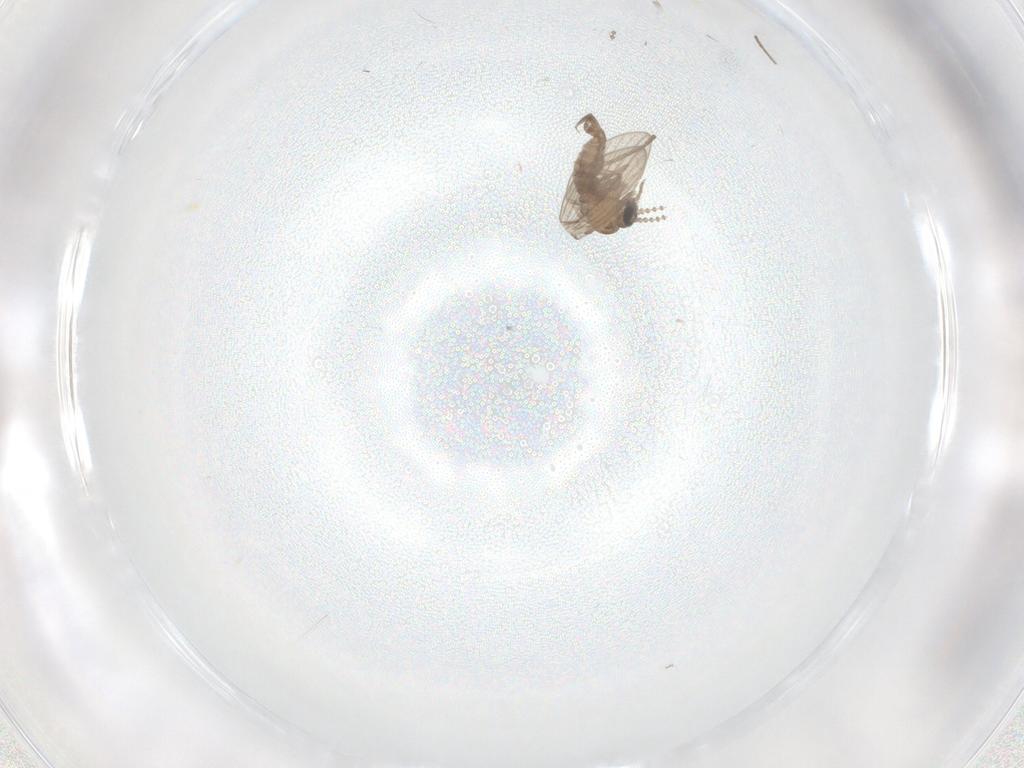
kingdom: Animalia
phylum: Arthropoda
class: Insecta
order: Diptera
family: Psychodidae
